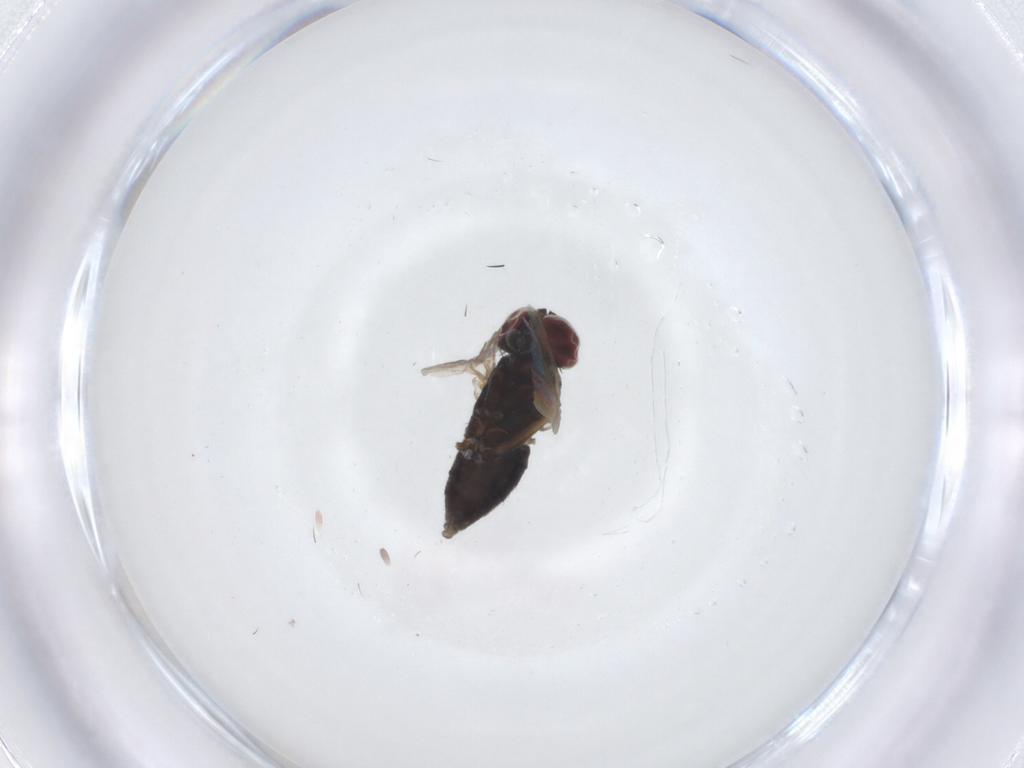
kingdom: Animalia
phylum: Arthropoda
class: Insecta
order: Diptera
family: Dolichopodidae
